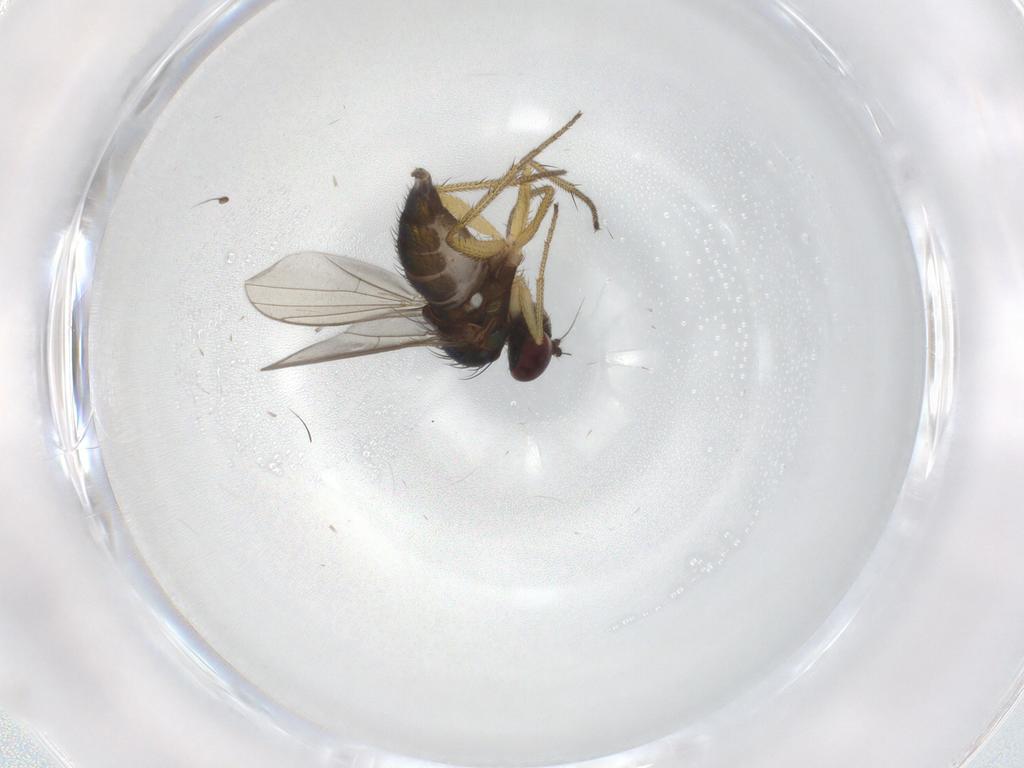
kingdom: Animalia
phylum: Arthropoda
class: Insecta
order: Diptera
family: Dolichopodidae
